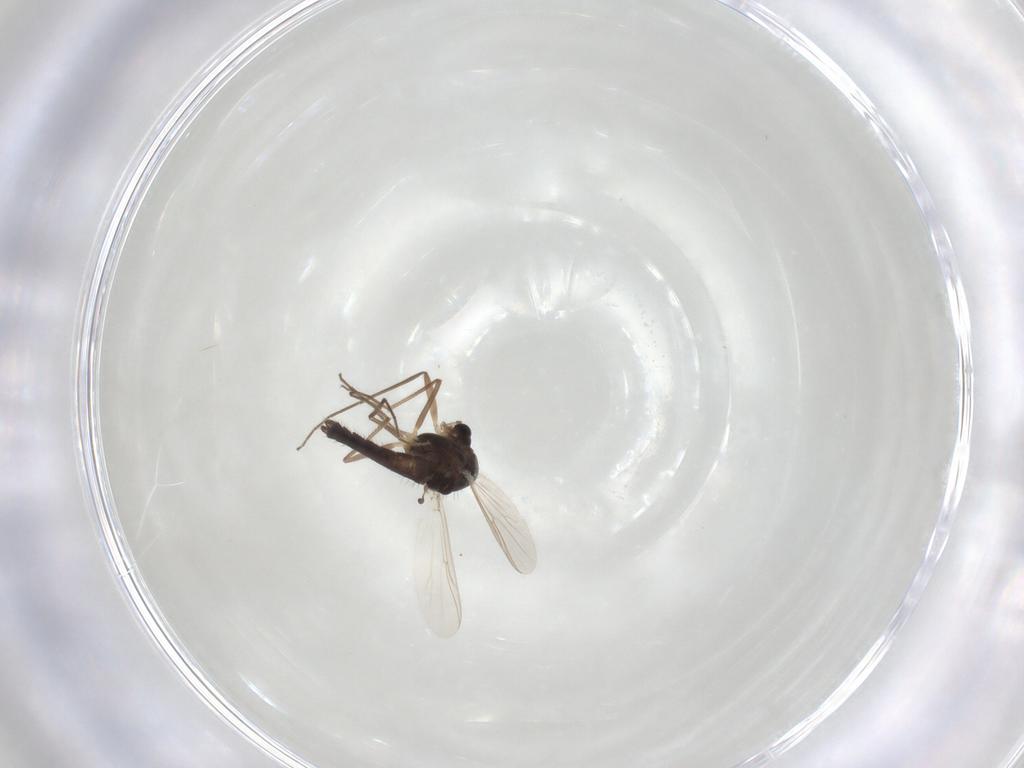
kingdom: Animalia
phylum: Arthropoda
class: Insecta
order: Diptera
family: Chironomidae
